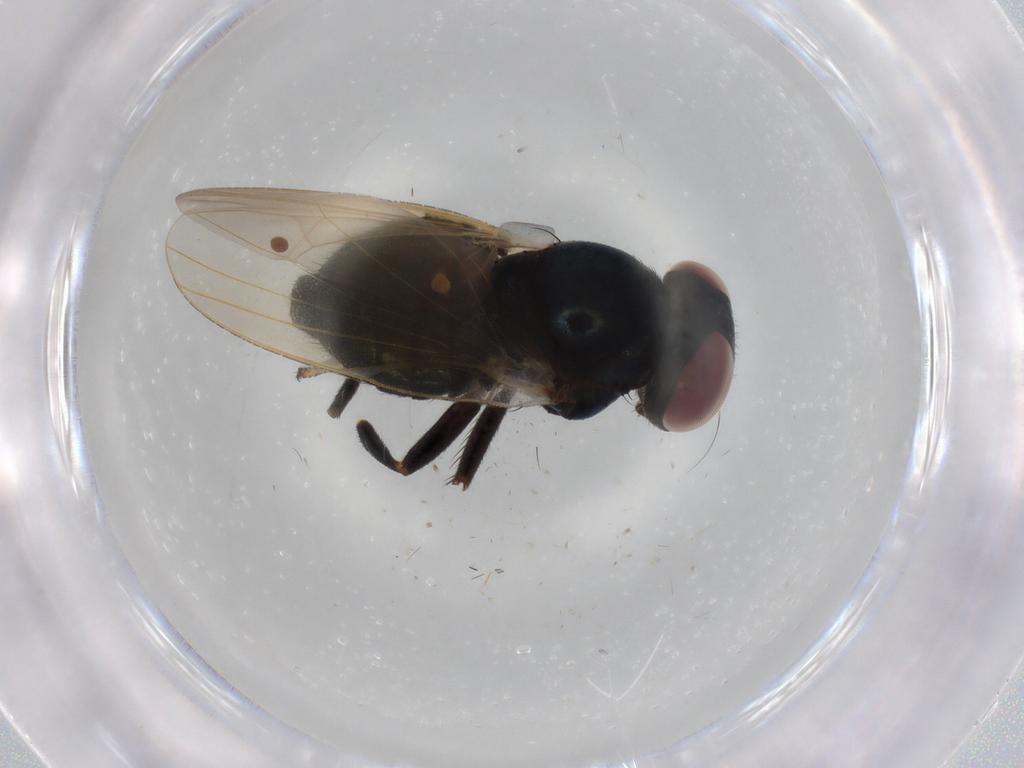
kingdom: Animalia
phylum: Arthropoda
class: Insecta
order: Diptera
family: Lonchaeidae
